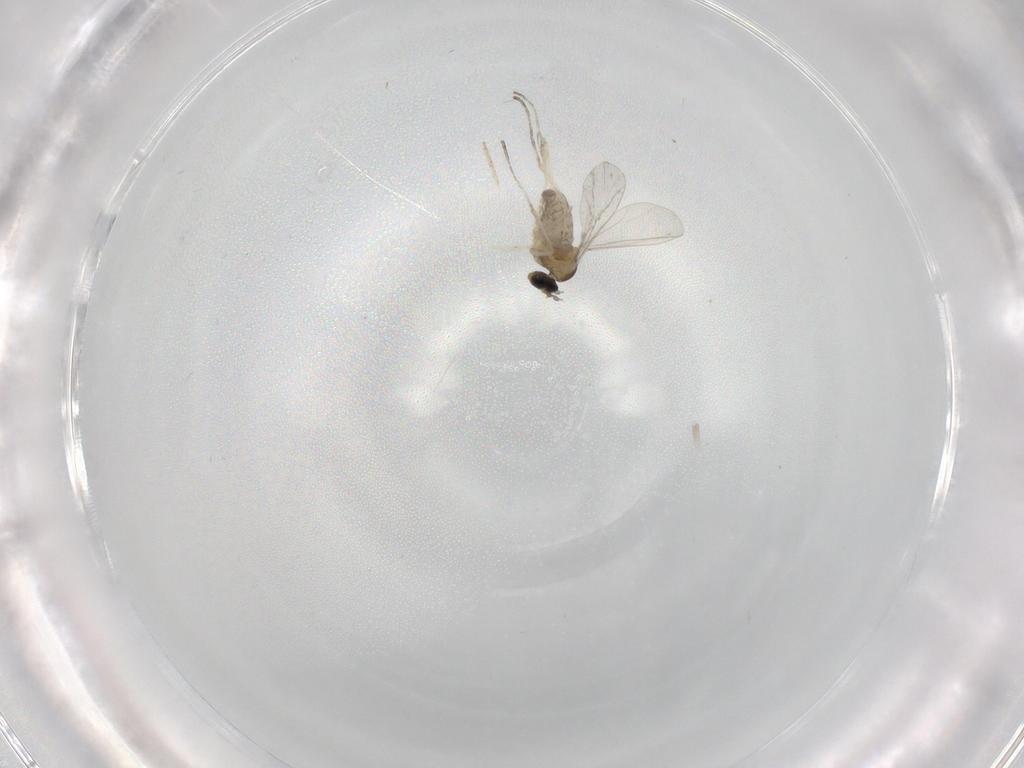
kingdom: Animalia
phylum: Arthropoda
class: Insecta
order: Diptera
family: Cecidomyiidae
